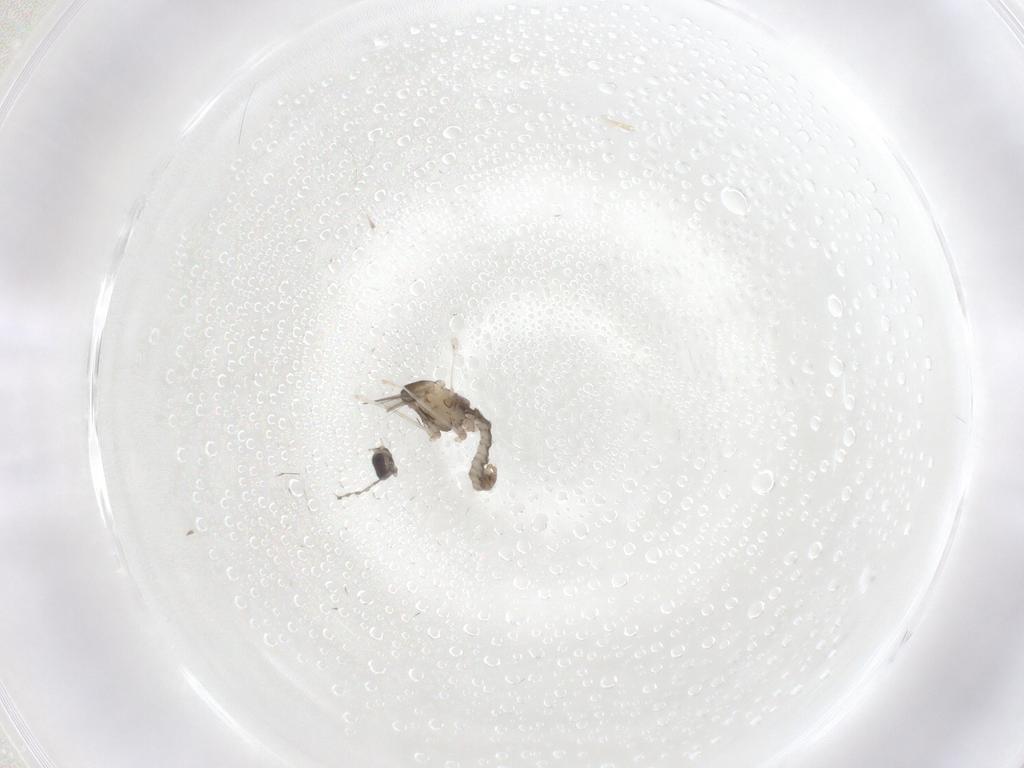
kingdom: Animalia
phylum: Arthropoda
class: Insecta
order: Diptera
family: Cecidomyiidae
